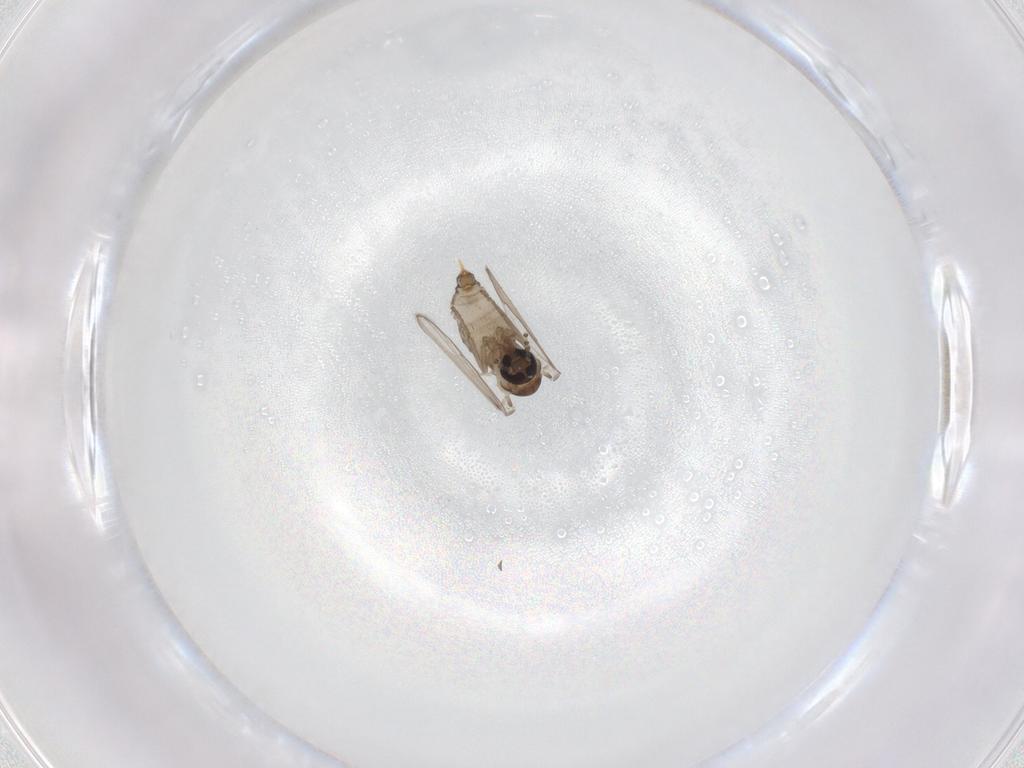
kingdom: Animalia
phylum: Arthropoda
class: Insecta
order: Diptera
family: Psychodidae
